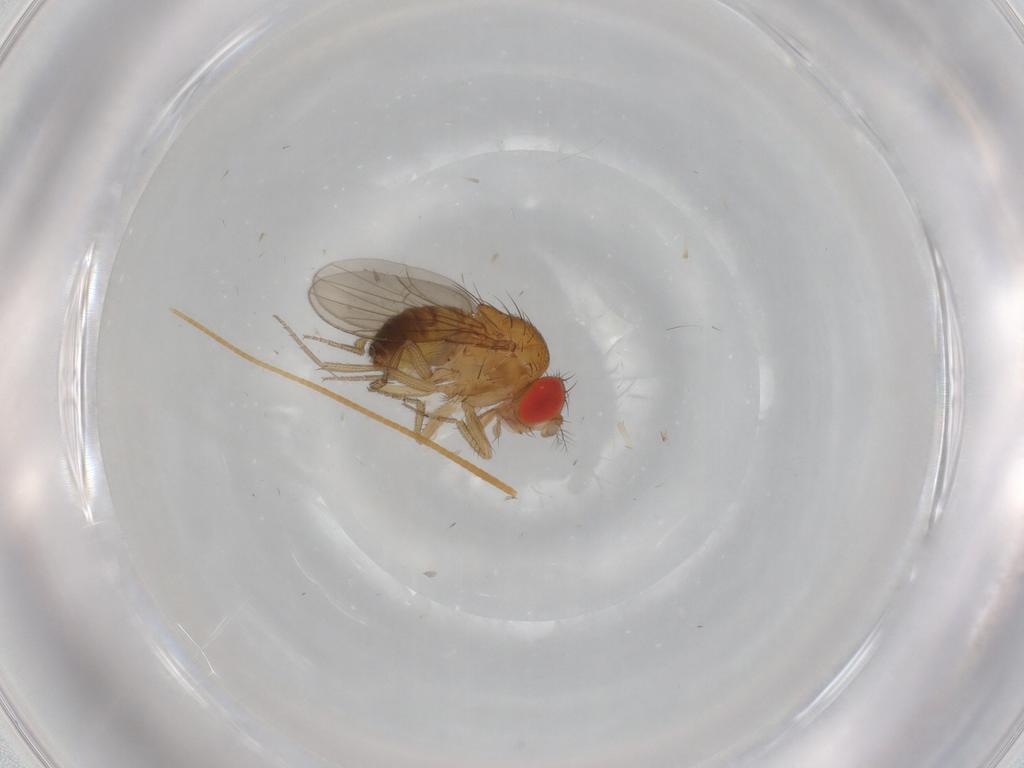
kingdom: Animalia
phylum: Arthropoda
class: Insecta
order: Diptera
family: Drosophilidae
